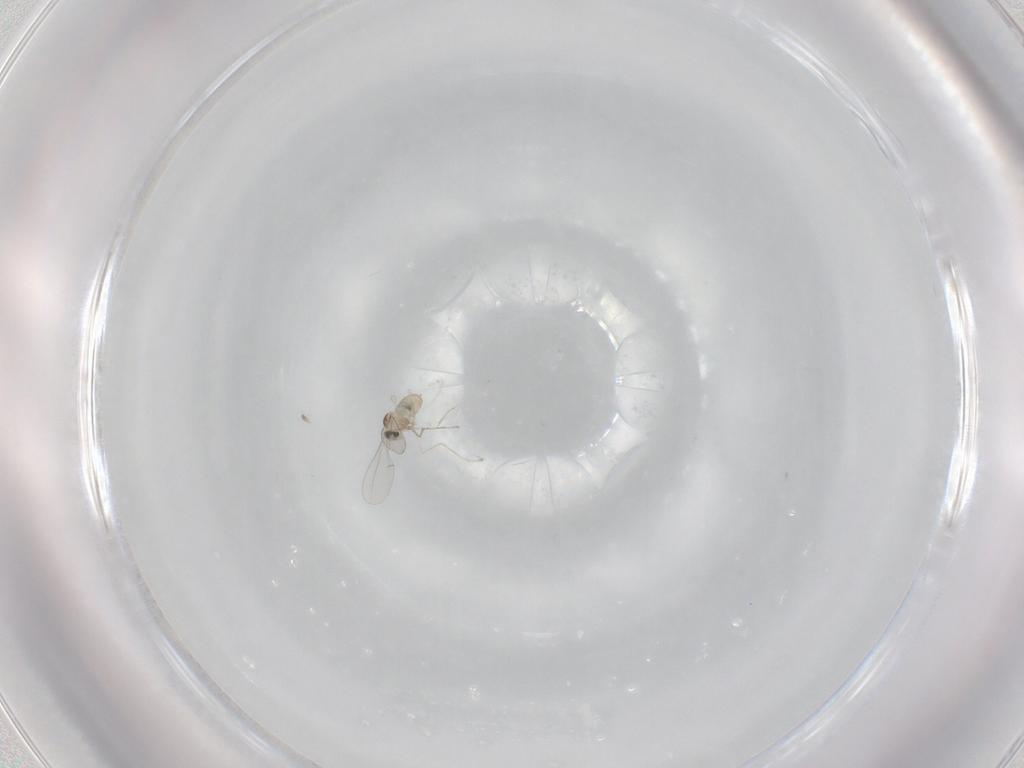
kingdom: Animalia
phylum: Arthropoda
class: Insecta
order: Diptera
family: Cecidomyiidae
